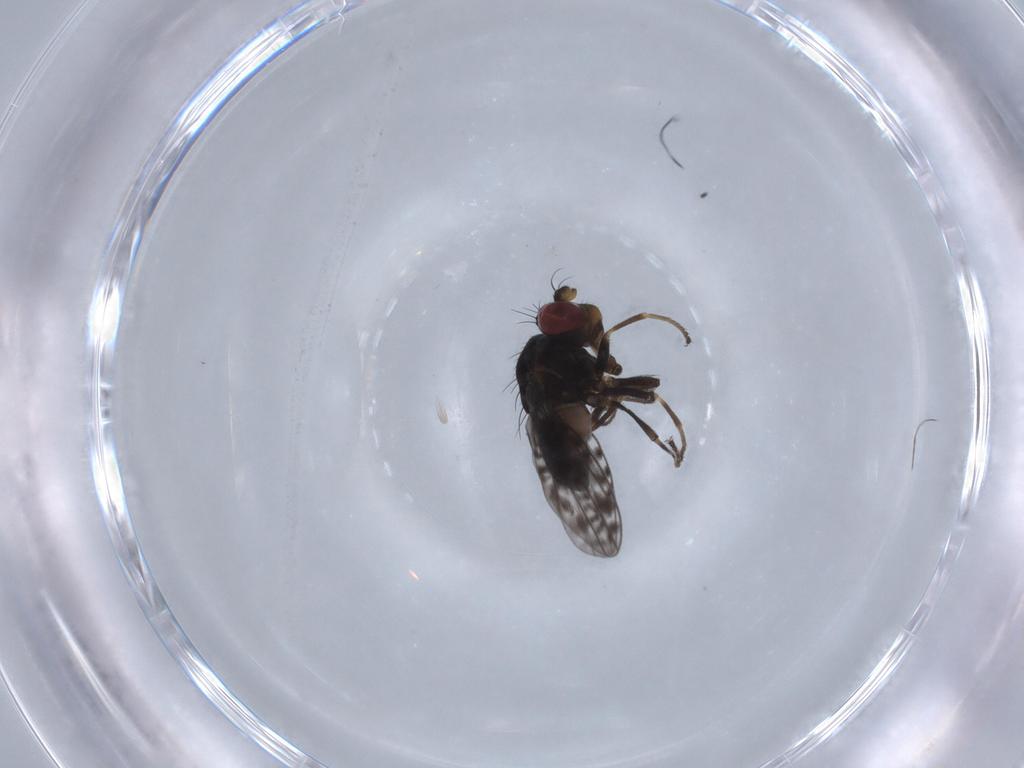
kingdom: Animalia
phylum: Arthropoda
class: Insecta
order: Diptera
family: Ephydridae
